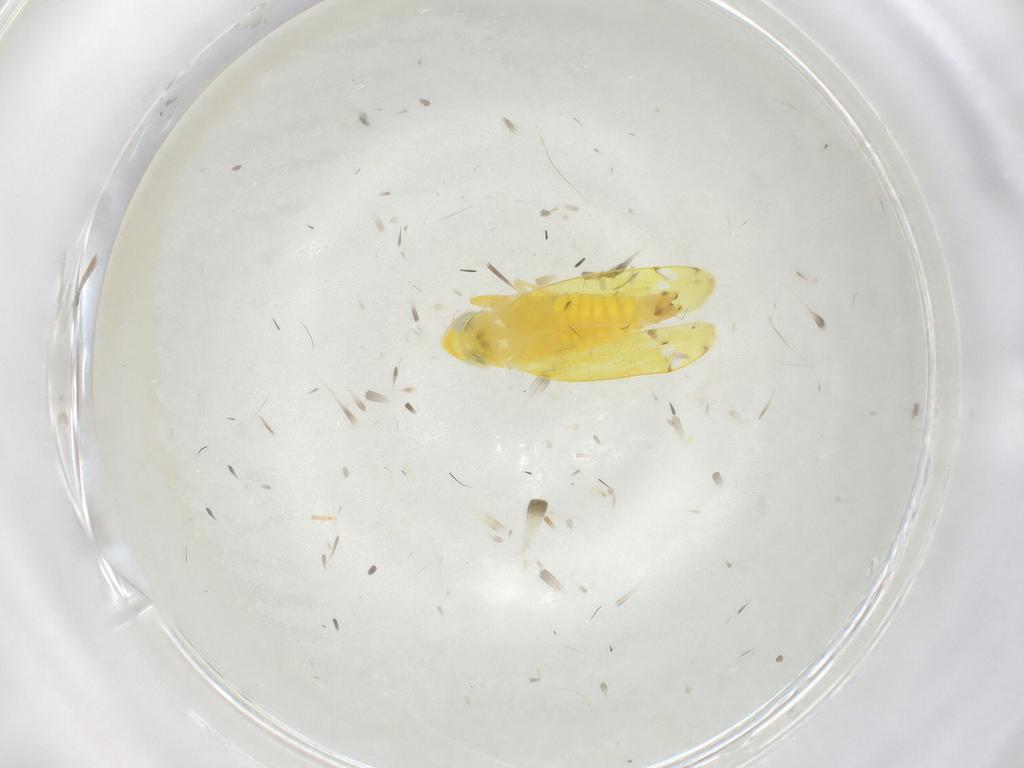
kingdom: Animalia
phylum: Arthropoda
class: Insecta
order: Hemiptera
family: Cicadellidae
